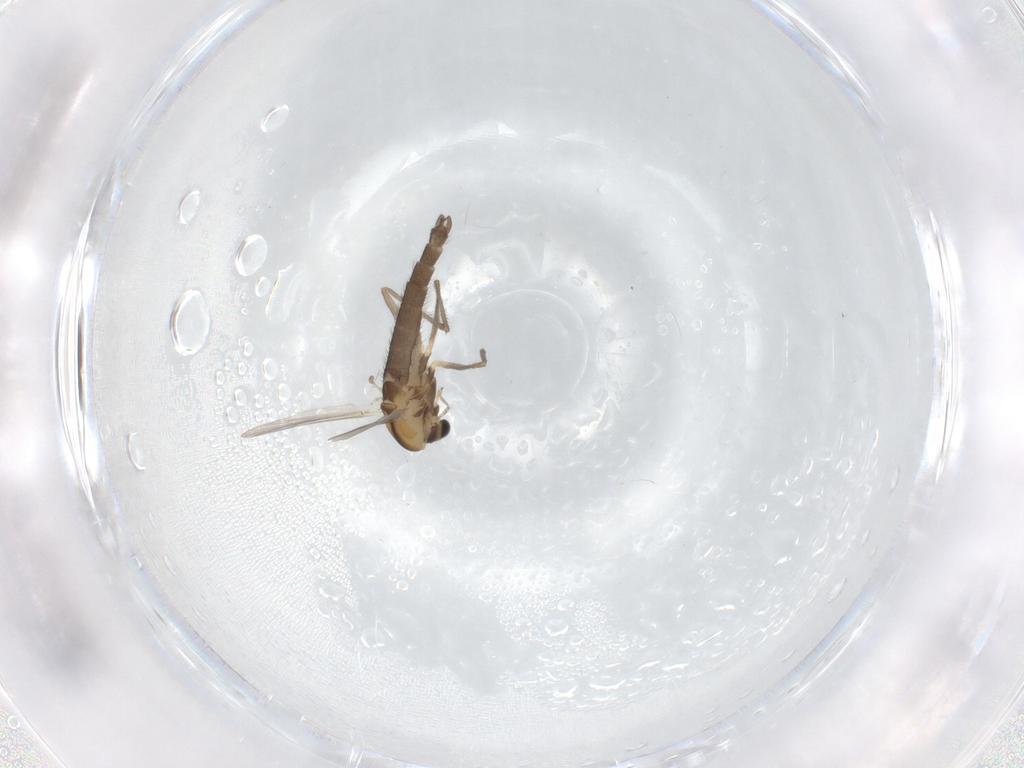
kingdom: Animalia
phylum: Arthropoda
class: Insecta
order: Diptera
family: Chironomidae
